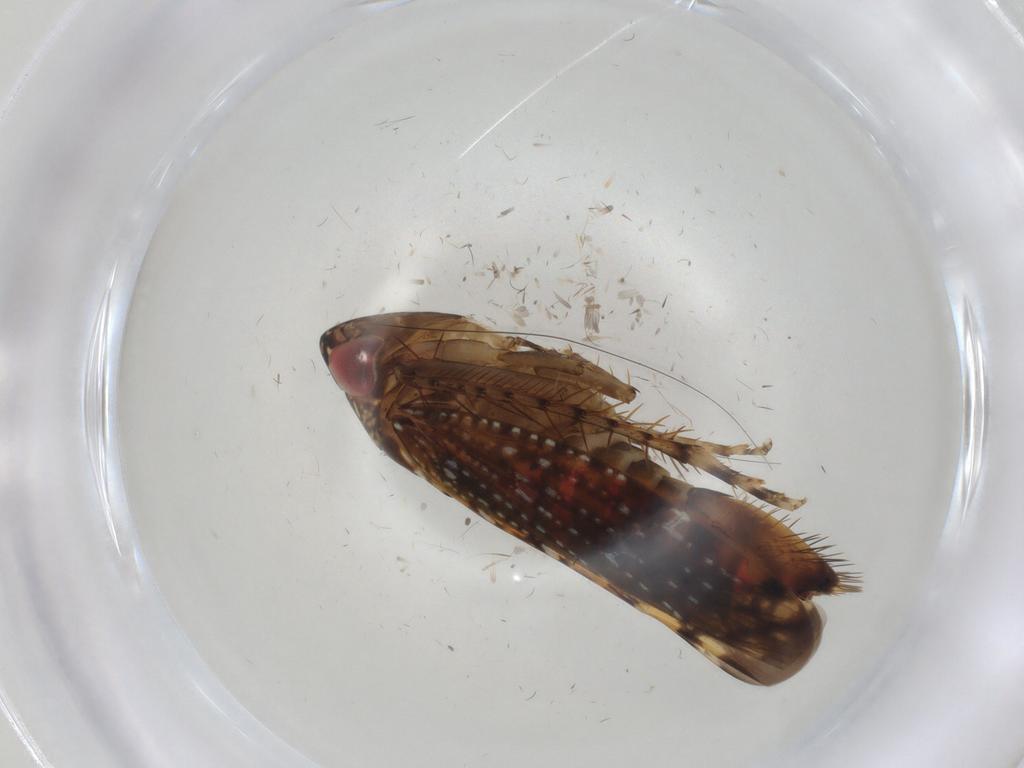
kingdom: Animalia
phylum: Arthropoda
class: Insecta
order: Hemiptera
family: Cicadellidae
